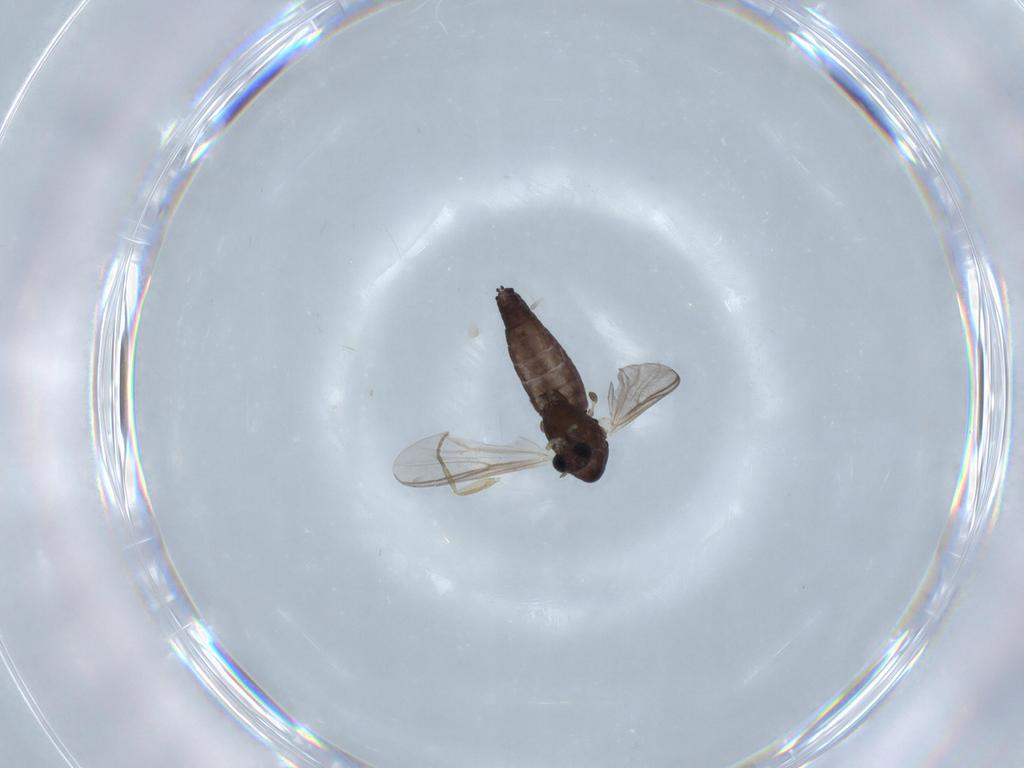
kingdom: Animalia
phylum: Arthropoda
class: Insecta
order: Diptera
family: Chironomidae
